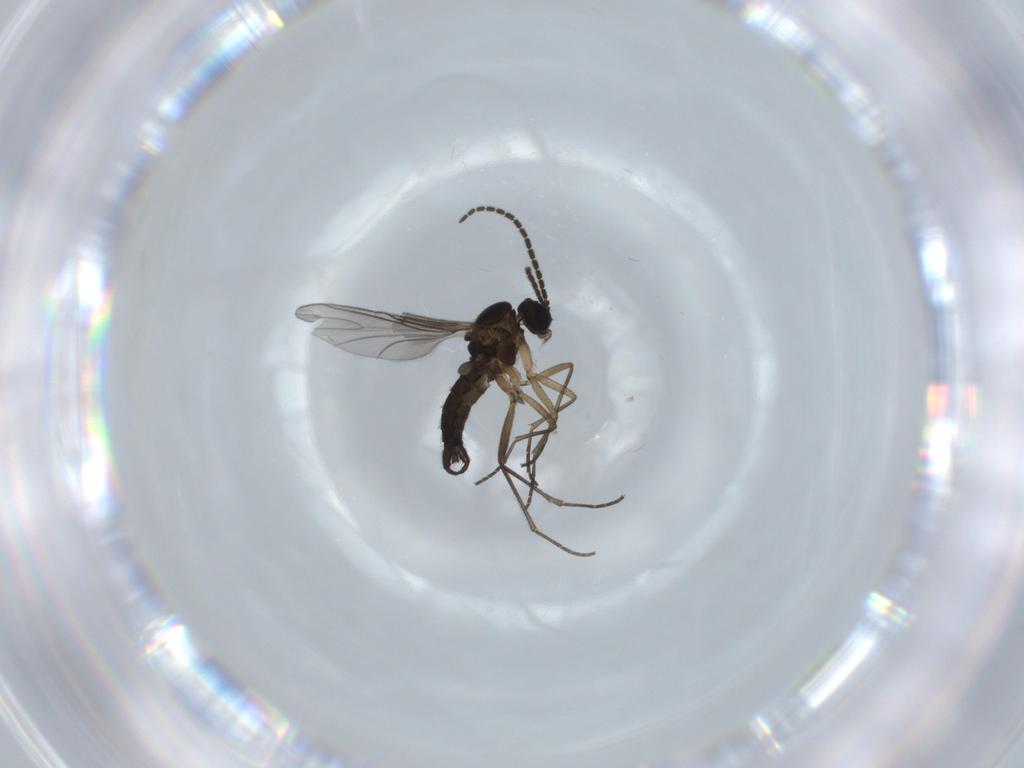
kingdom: Animalia
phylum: Arthropoda
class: Insecta
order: Diptera
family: Agromyzidae
